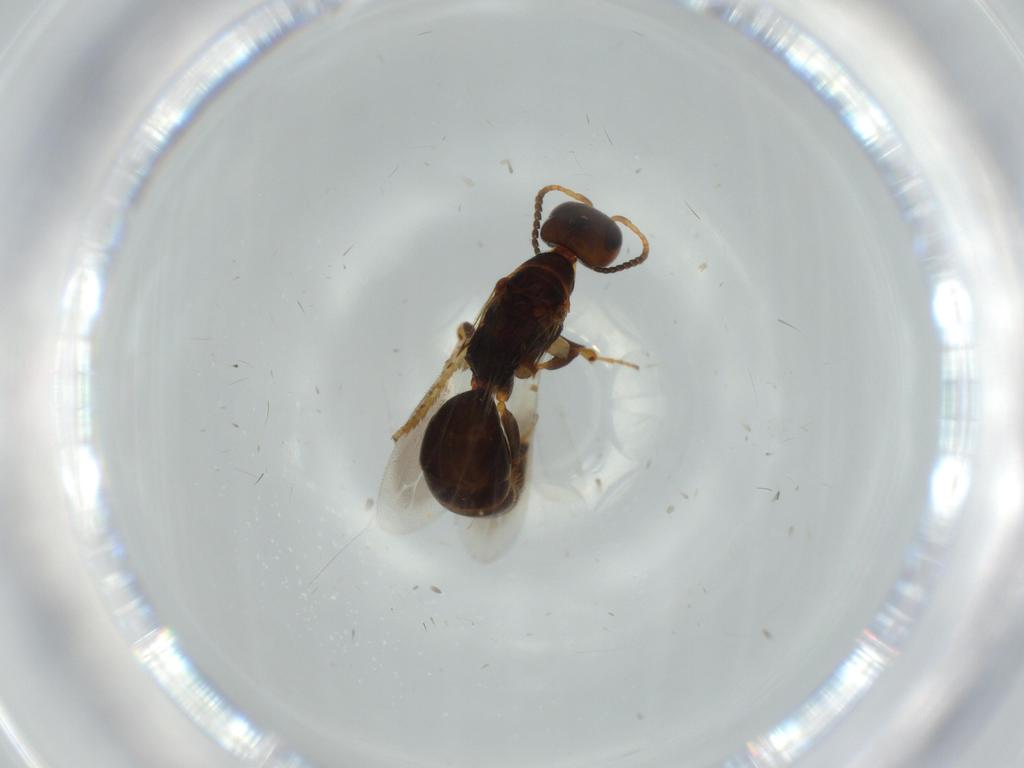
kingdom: Animalia
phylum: Arthropoda
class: Insecta
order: Hymenoptera
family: Bethylidae
